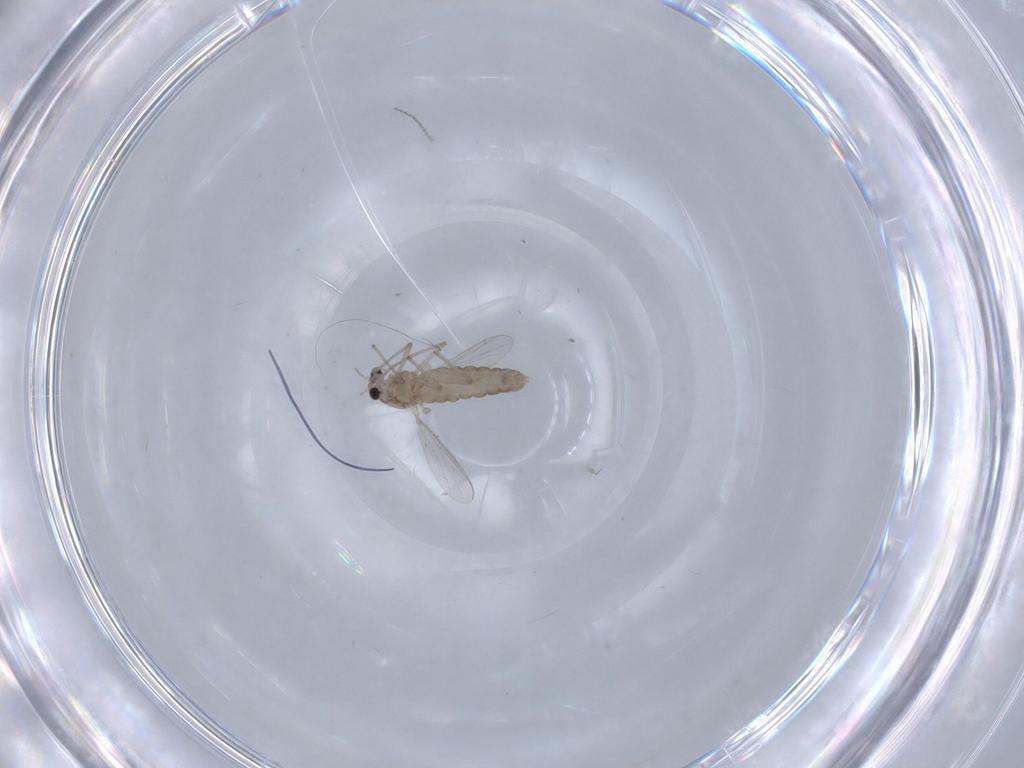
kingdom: Animalia
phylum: Arthropoda
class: Insecta
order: Diptera
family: Chironomidae
